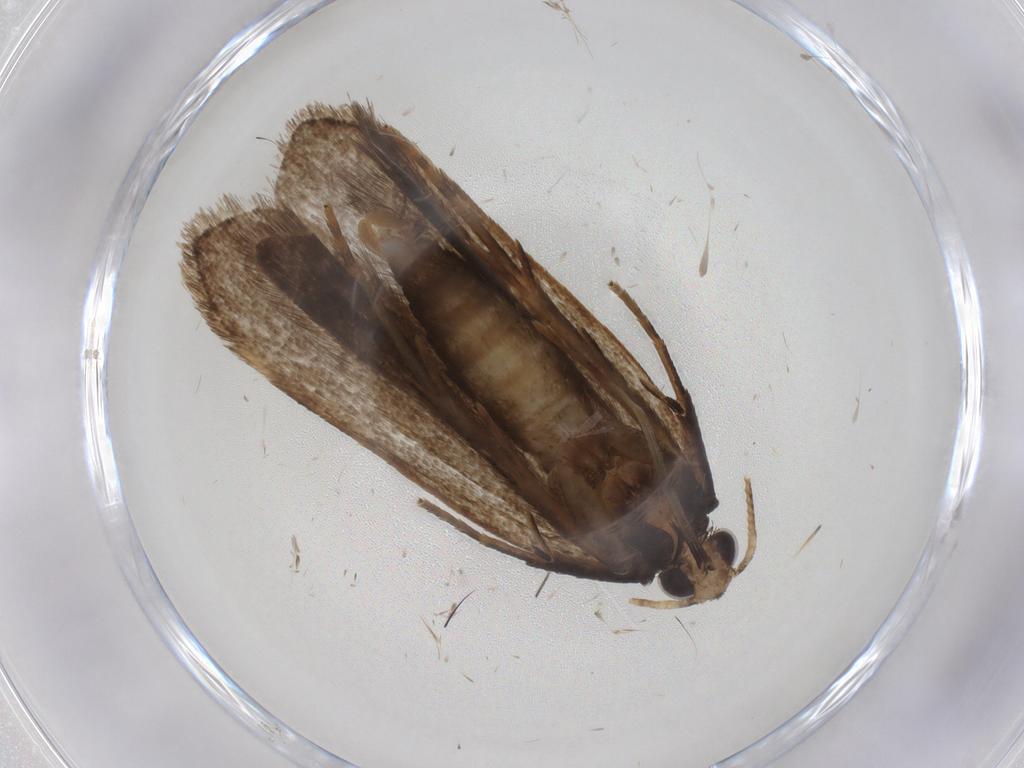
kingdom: Animalia
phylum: Arthropoda
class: Insecta
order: Lepidoptera
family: Gelechiidae
